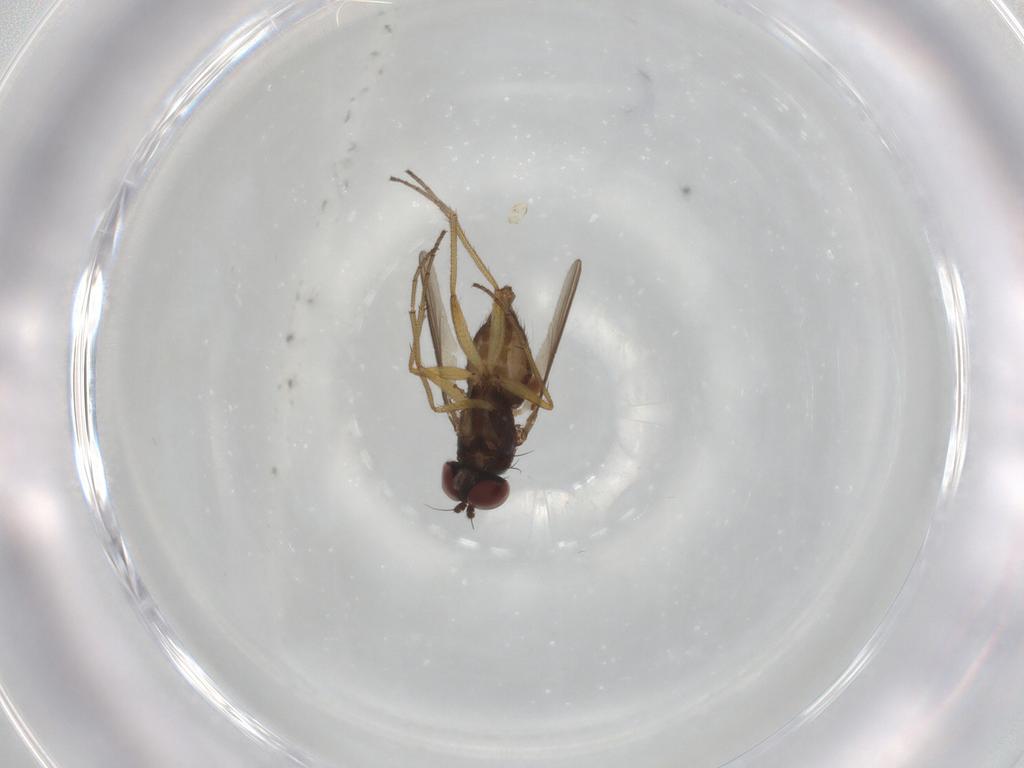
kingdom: Animalia
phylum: Arthropoda
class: Insecta
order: Diptera
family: Dolichopodidae
